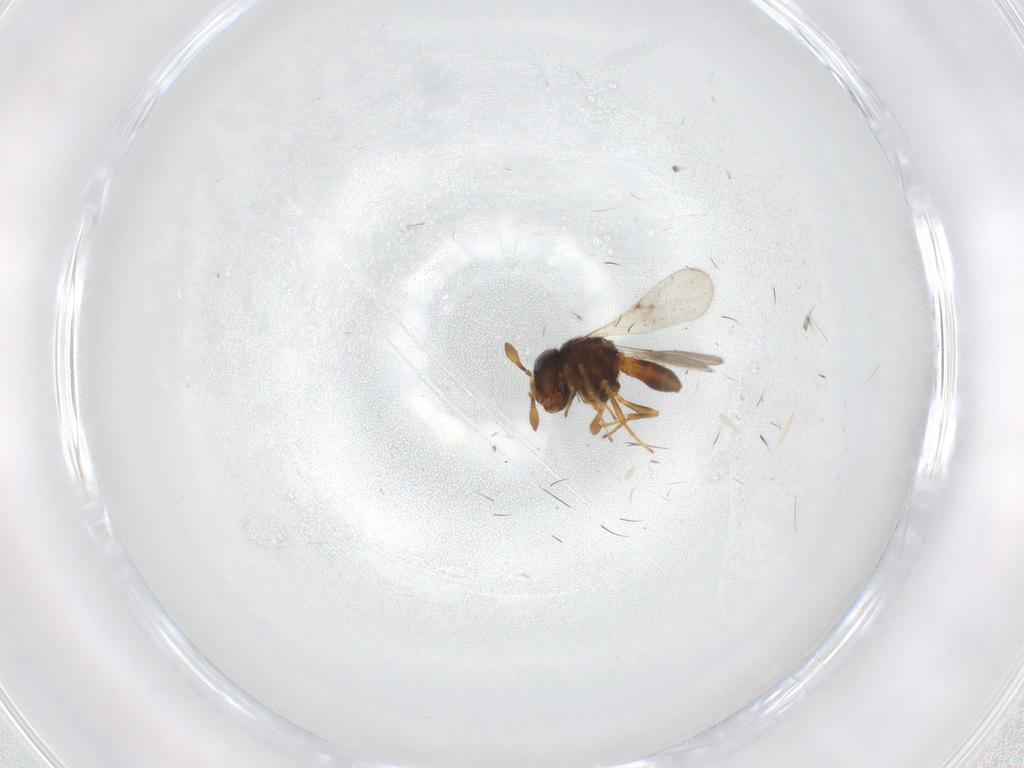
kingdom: Animalia
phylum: Arthropoda
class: Insecta
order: Hymenoptera
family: Scelionidae
